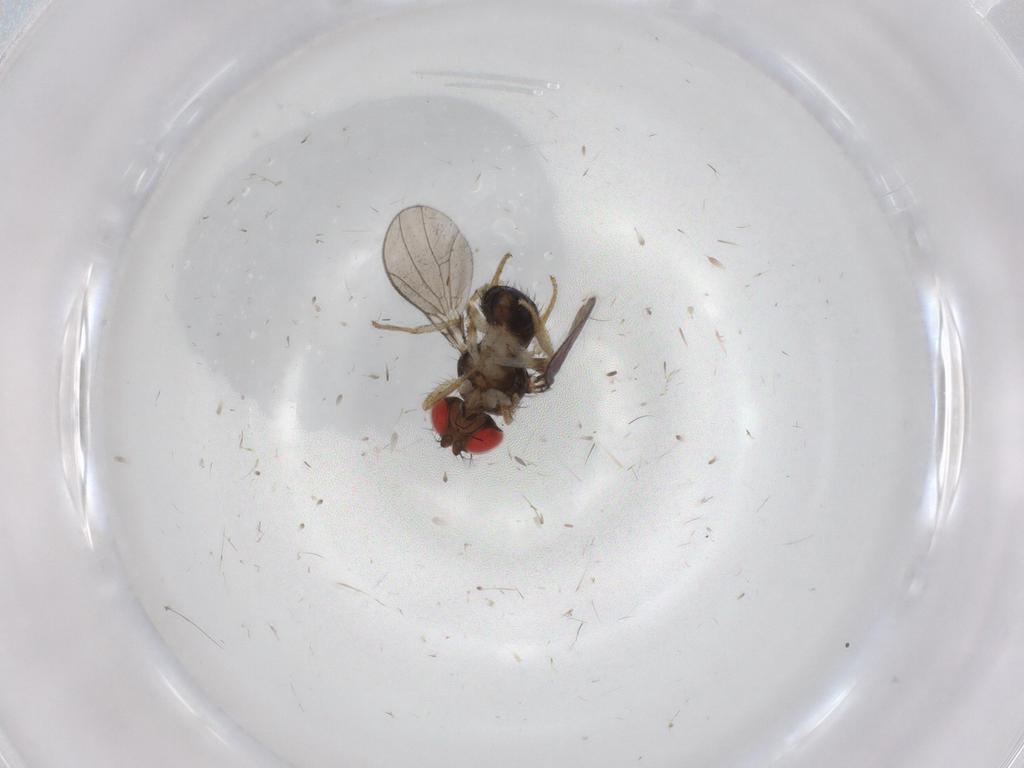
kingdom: Animalia
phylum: Arthropoda
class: Insecta
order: Diptera
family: Drosophilidae
